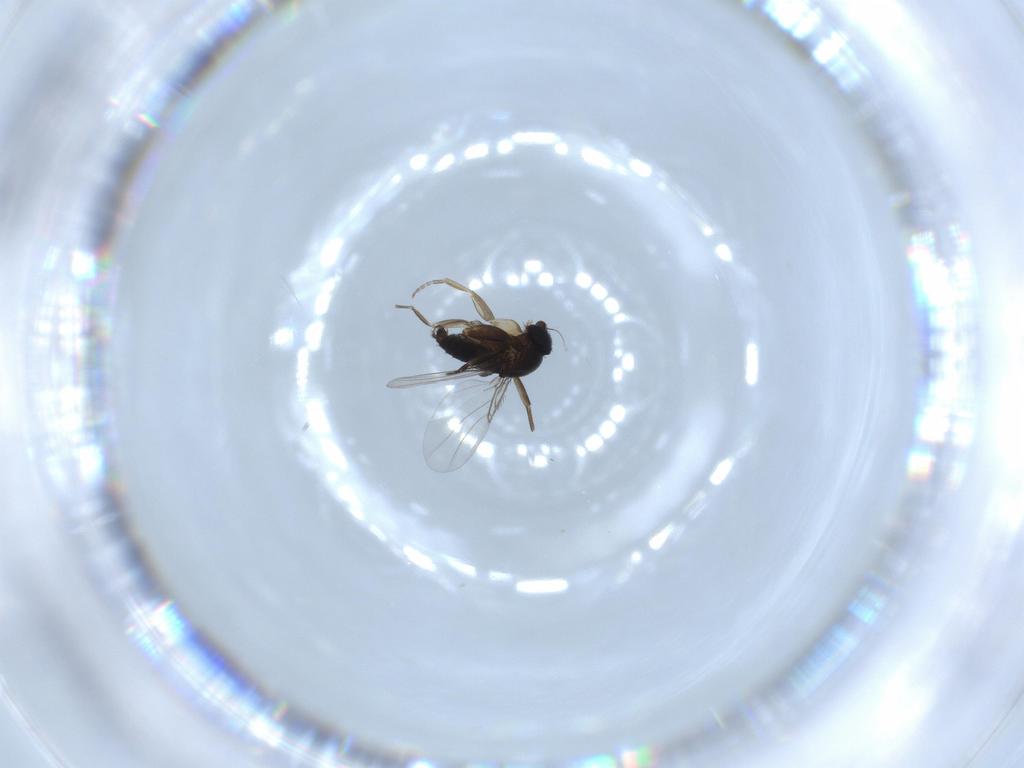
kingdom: Animalia
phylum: Arthropoda
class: Insecta
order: Diptera
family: Phoridae
